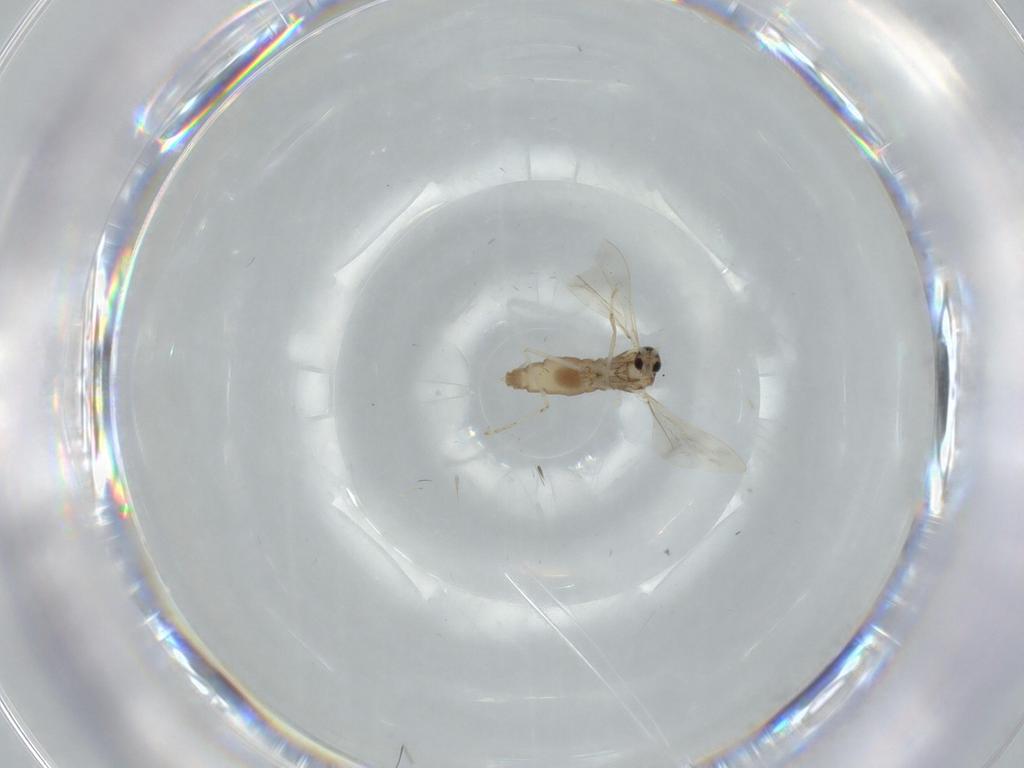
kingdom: Animalia
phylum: Arthropoda
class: Insecta
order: Diptera
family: Cecidomyiidae
